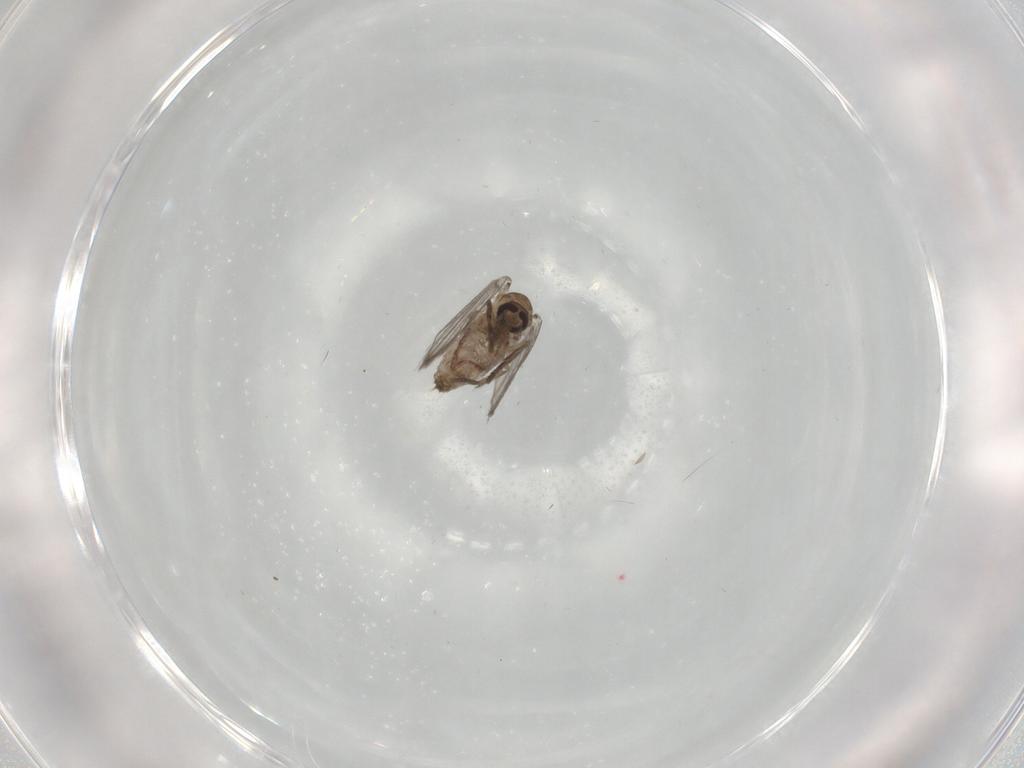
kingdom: Animalia
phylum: Arthropoda
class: Insecta
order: Diptera
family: Psychodidae
